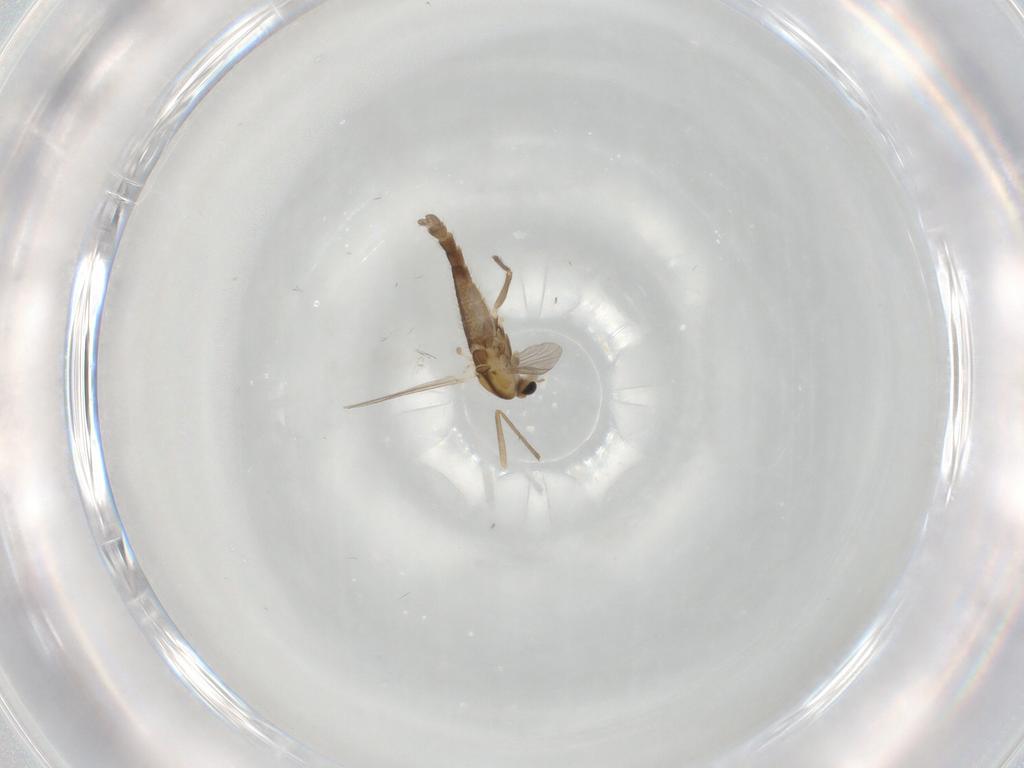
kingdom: Animalia
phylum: Arthropoda
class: Insecta
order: Diptera
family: Chironomidae
